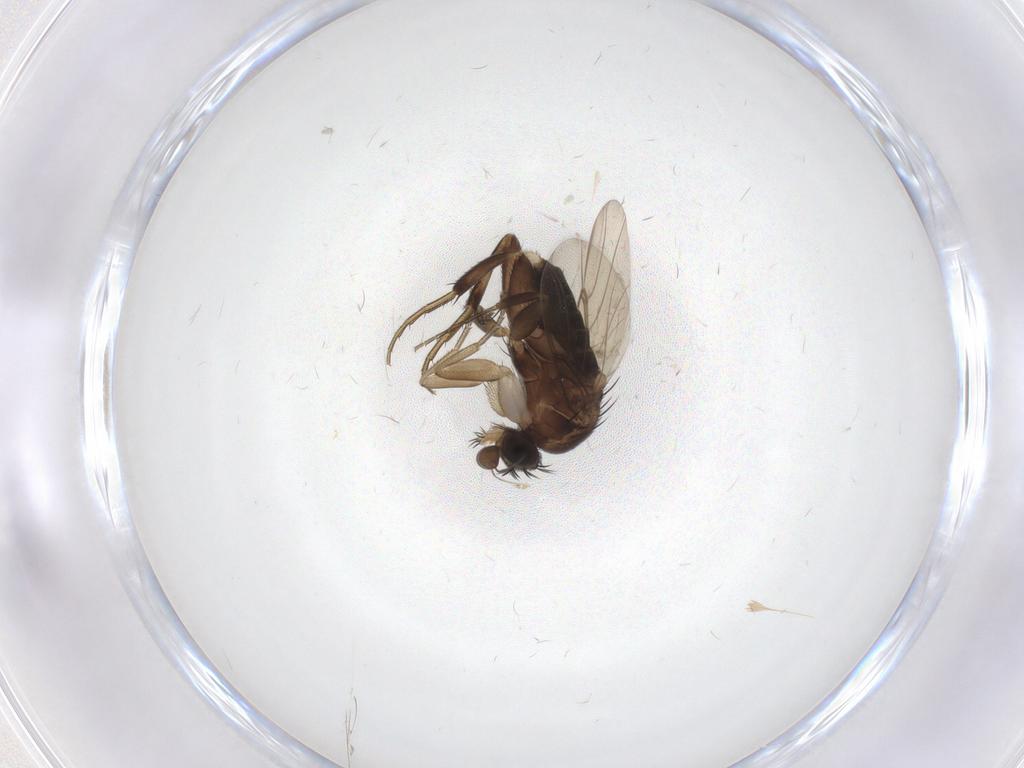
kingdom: Animalia
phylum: Arthropoda
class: Insecta
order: Diptera
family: Phoridae
